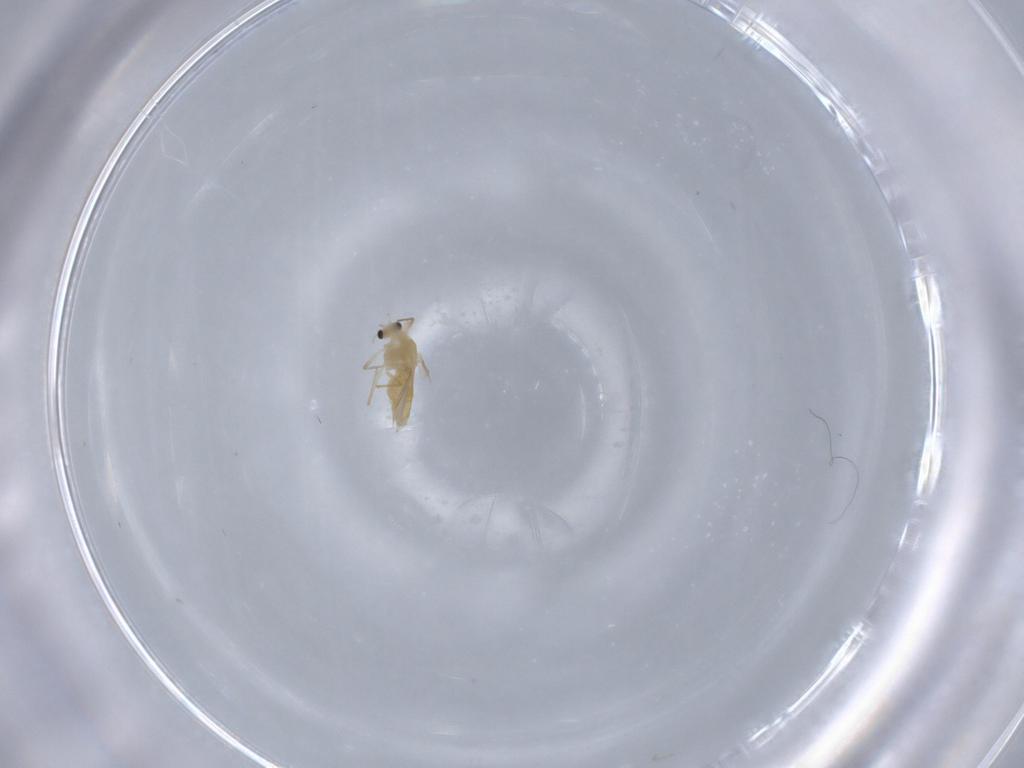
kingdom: Animalia
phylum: Arthropoda
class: Insecta
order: Diptera
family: Chironomidae
